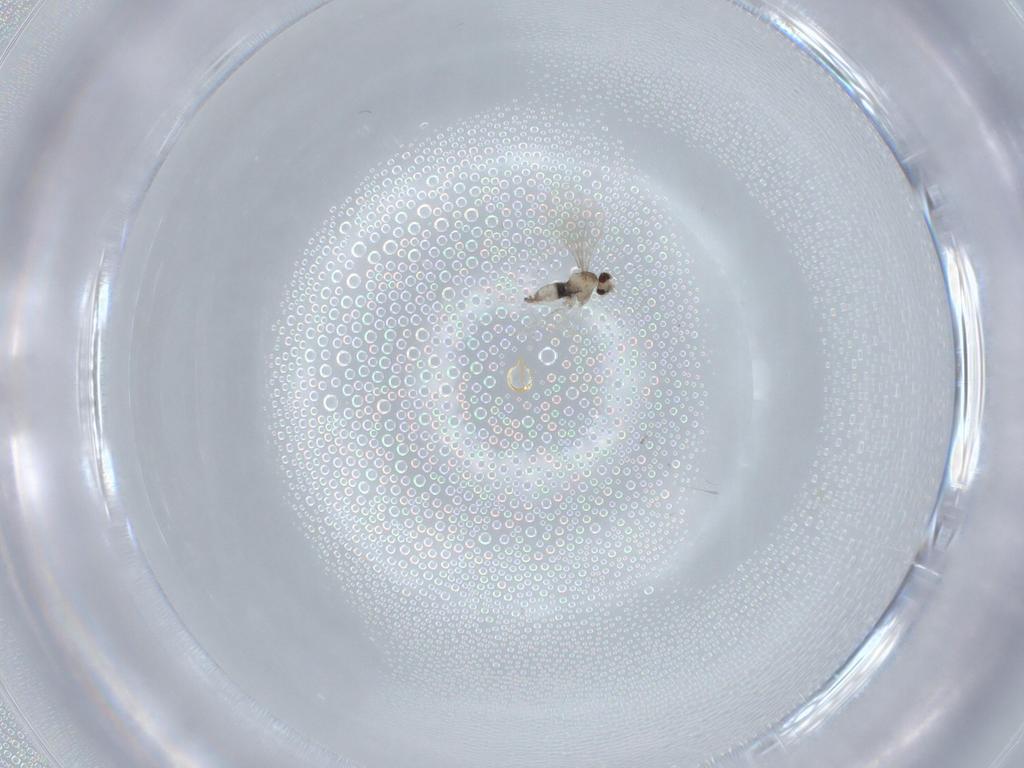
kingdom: Animalia
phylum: Arthropoda
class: Insecta
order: Diptera
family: Cecidomyiidae
